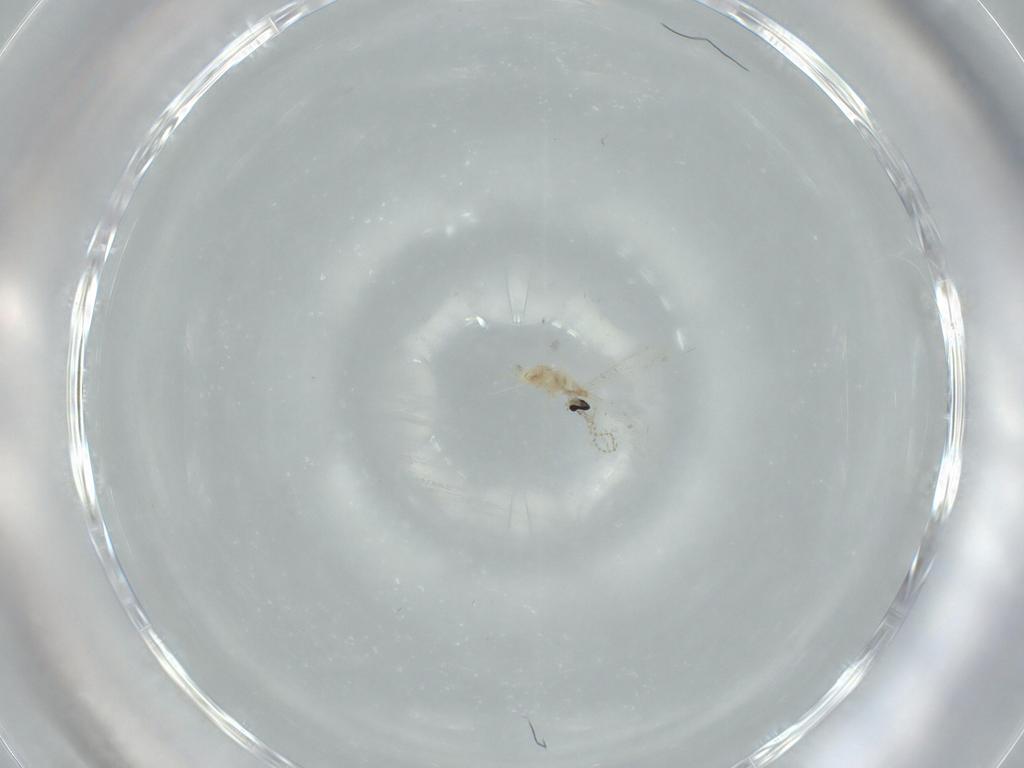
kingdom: Animalia
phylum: Arthropoda
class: Insecta
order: Diptera
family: Cecidomyiidae
